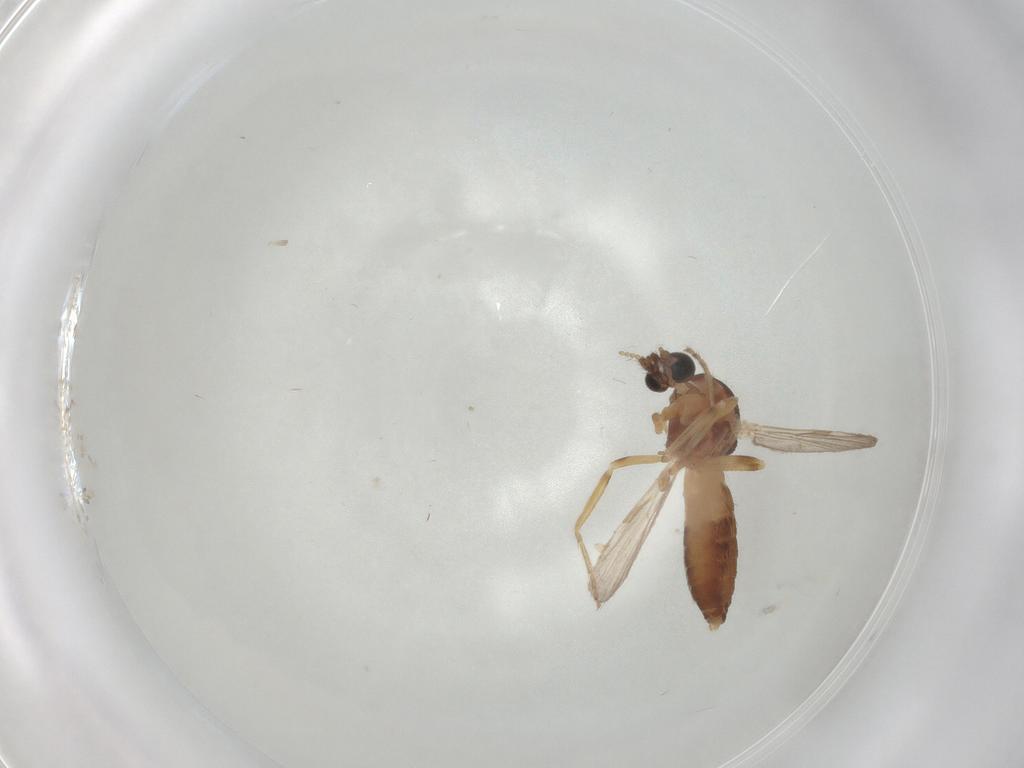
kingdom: Animalia
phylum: Arthropoda
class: Insecta
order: Diptera
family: Ceratopogonidae
